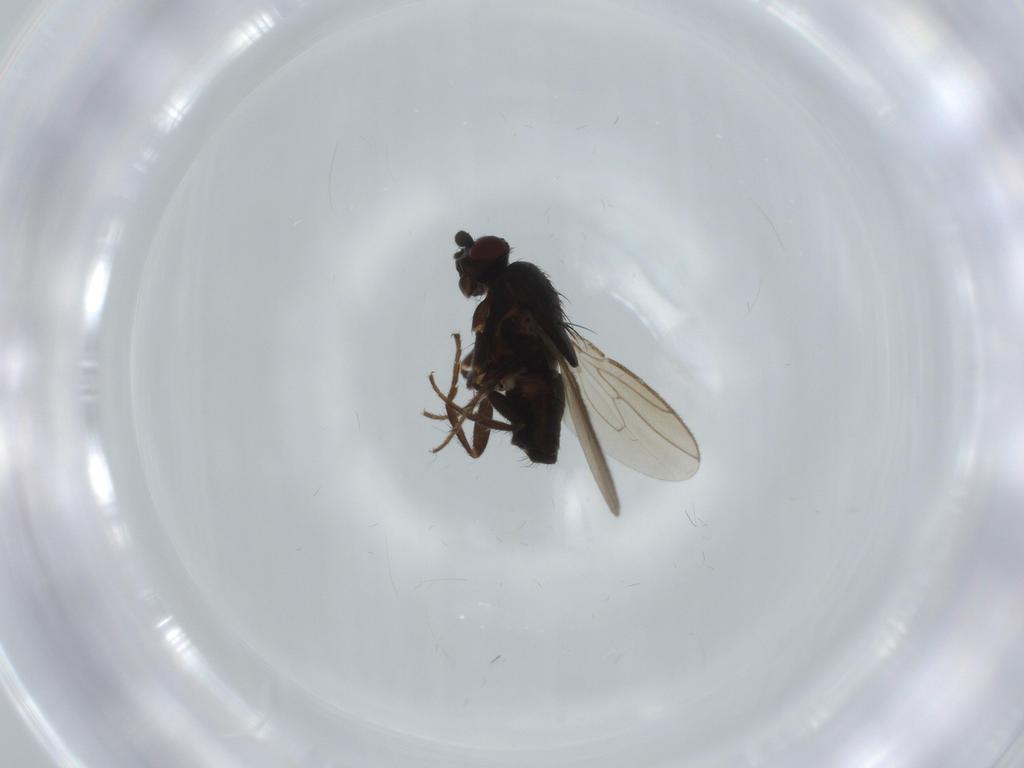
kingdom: Animalia
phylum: Arthropoda
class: Insecta
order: Diptera
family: Sphaeroceridae
